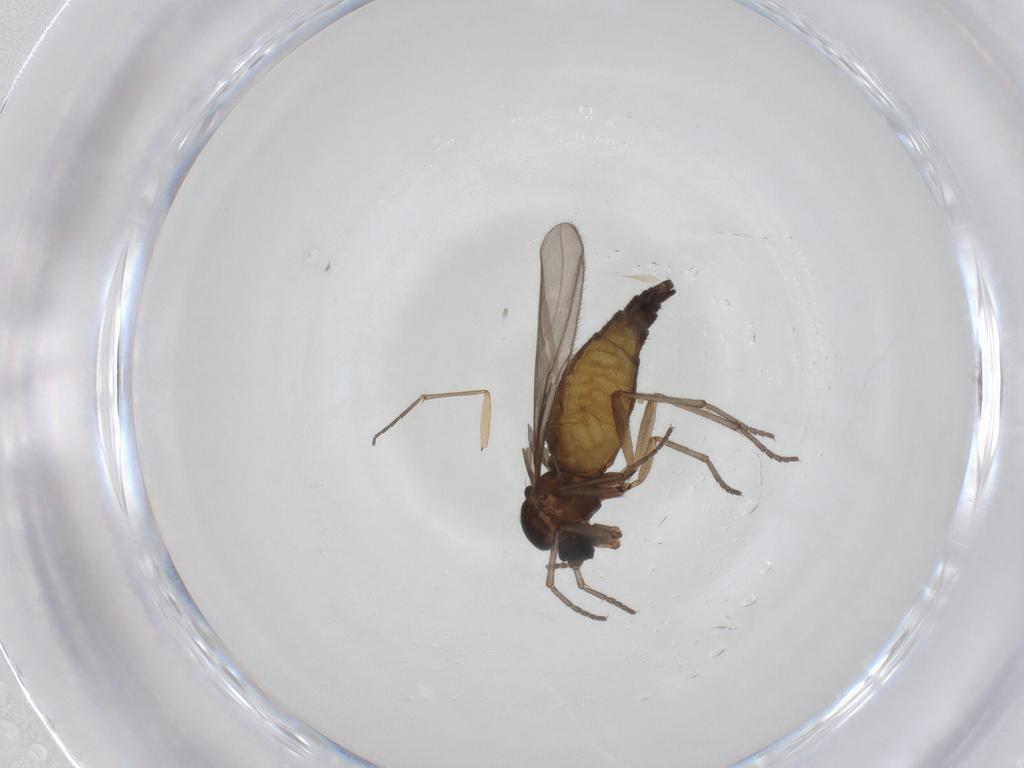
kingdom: Animalia
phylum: Arthropoda
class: Insecta
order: Diptera
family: Sciaridae
